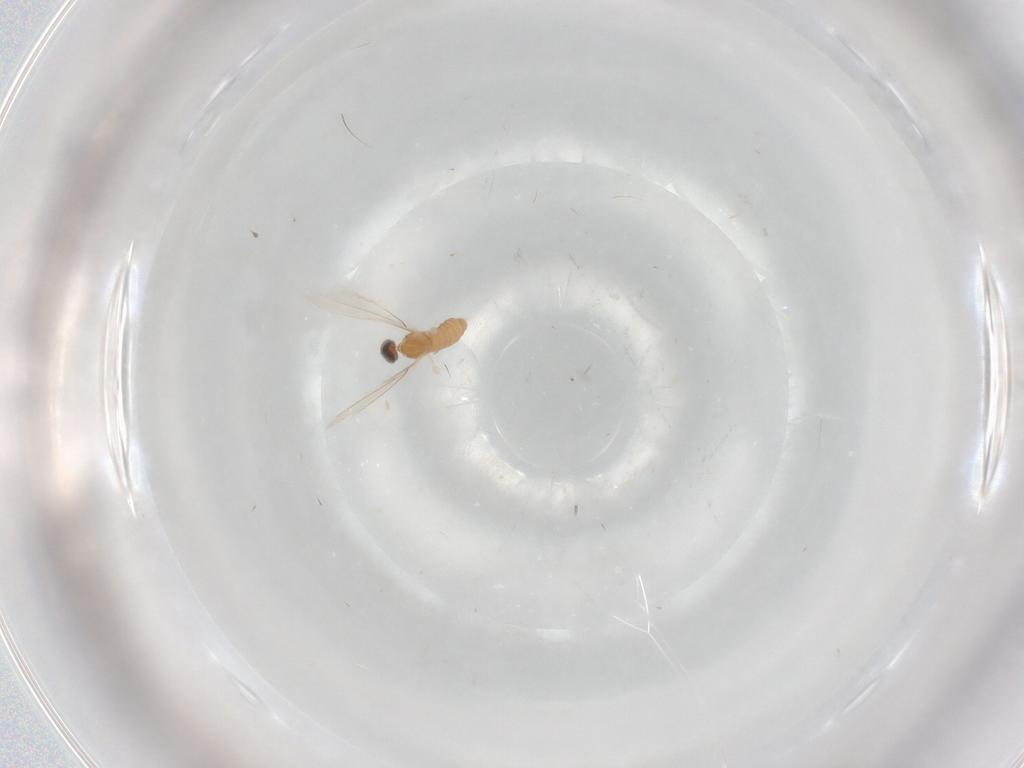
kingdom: Animalia
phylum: Arthropoda
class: Insecta
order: Diptera
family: Cecidomyiidae
